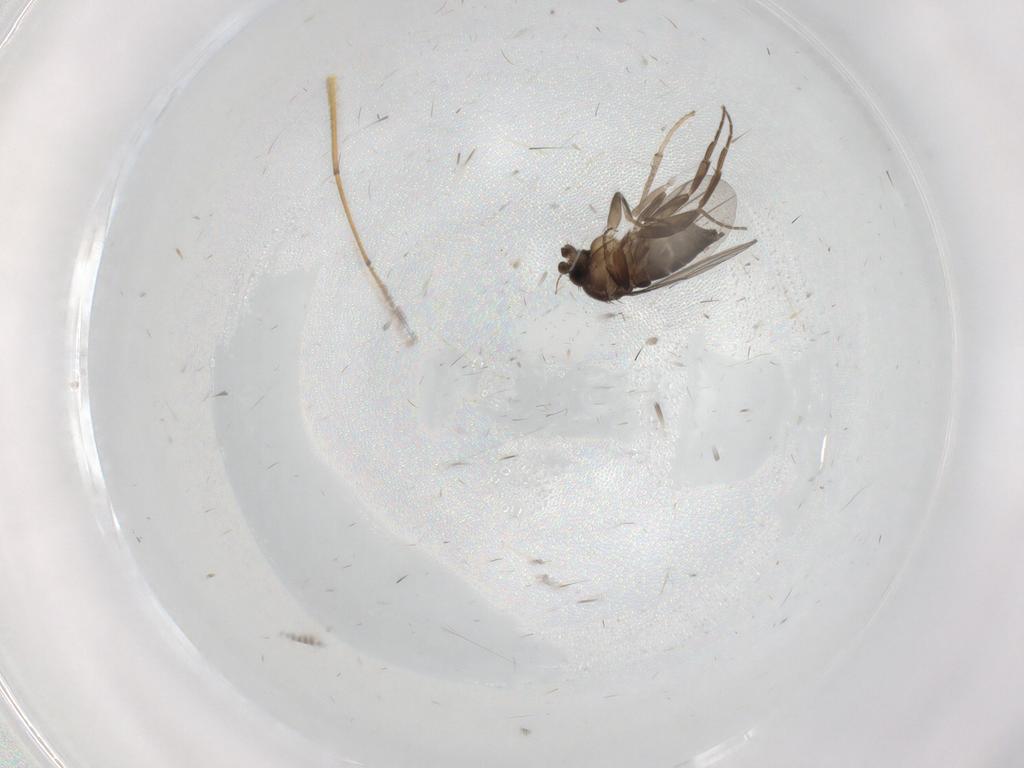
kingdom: Animalia
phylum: Arthropoda
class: Insecta
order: Diptera
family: Chironomidae
